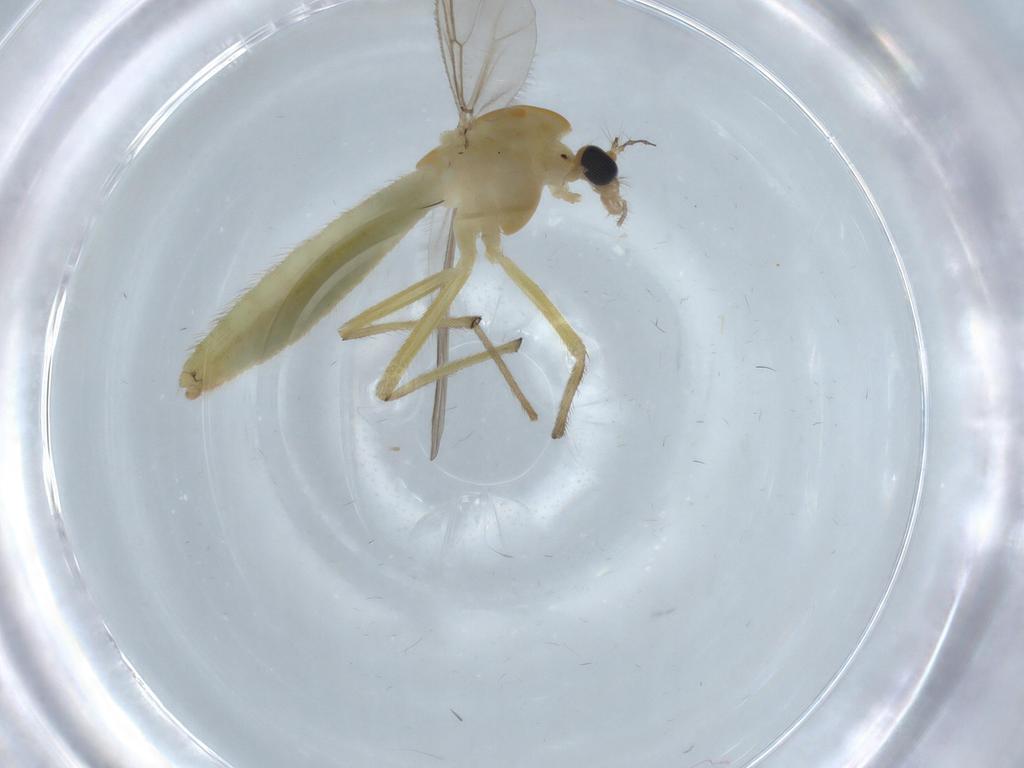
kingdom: Animalia
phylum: Arthropoda
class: Insecta
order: Diptera
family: Chironomidae
